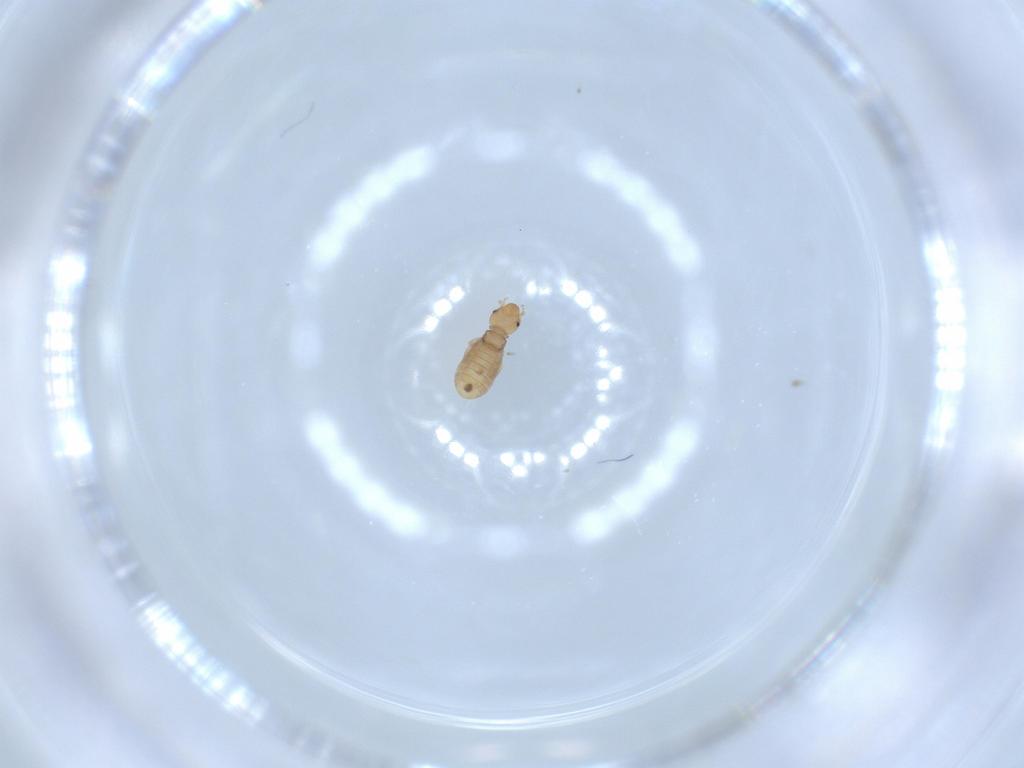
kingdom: Animalia
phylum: Arthropoda
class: Insecta
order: Psocodea
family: Liposcelididae
